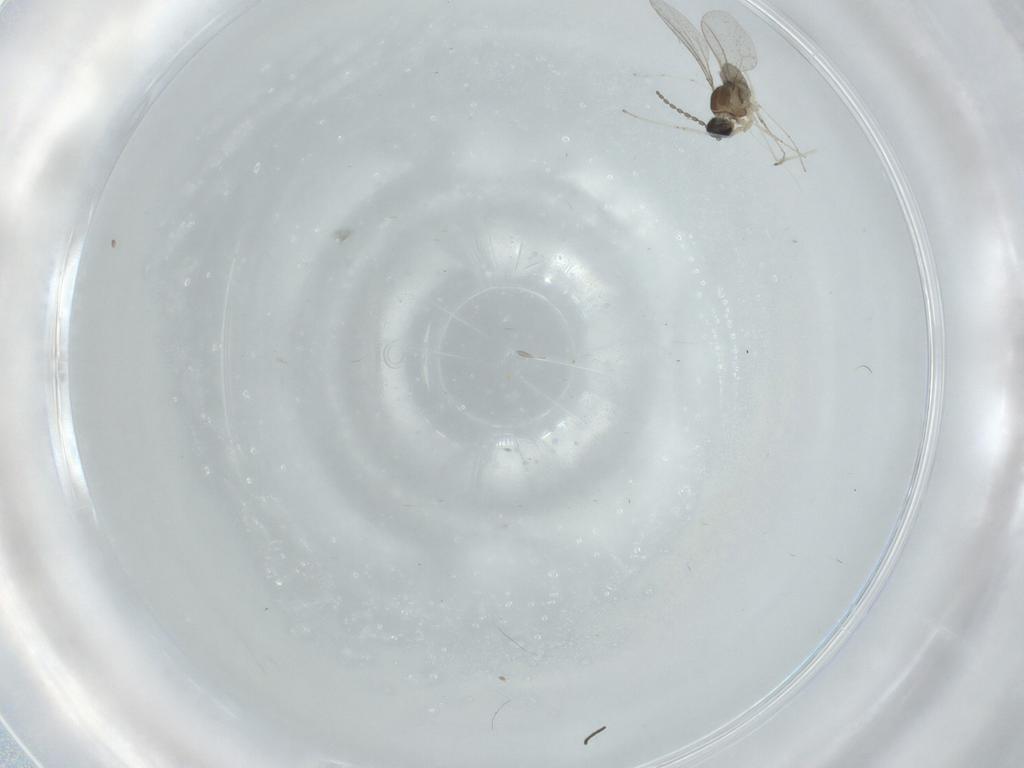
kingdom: Animalia
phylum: Arthropoda
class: Insecta
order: Diptera
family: Cecidomyiidae
